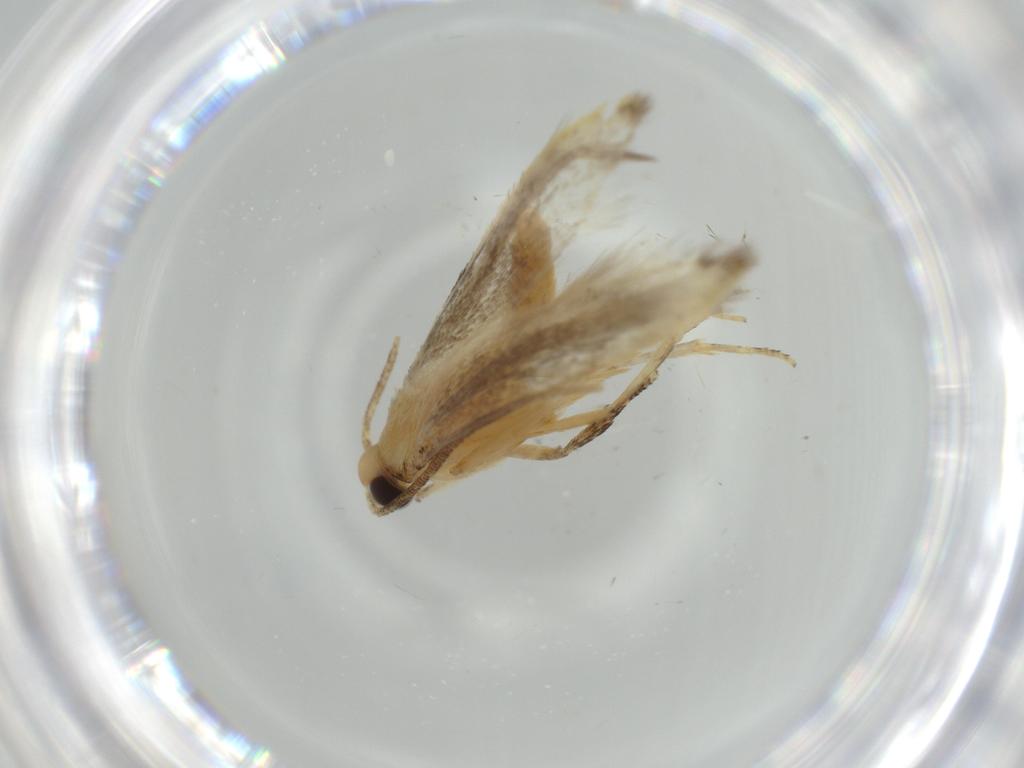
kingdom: Animalia
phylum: Arthropoda
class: Insecta
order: Lepidoptera
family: Autostichidae
